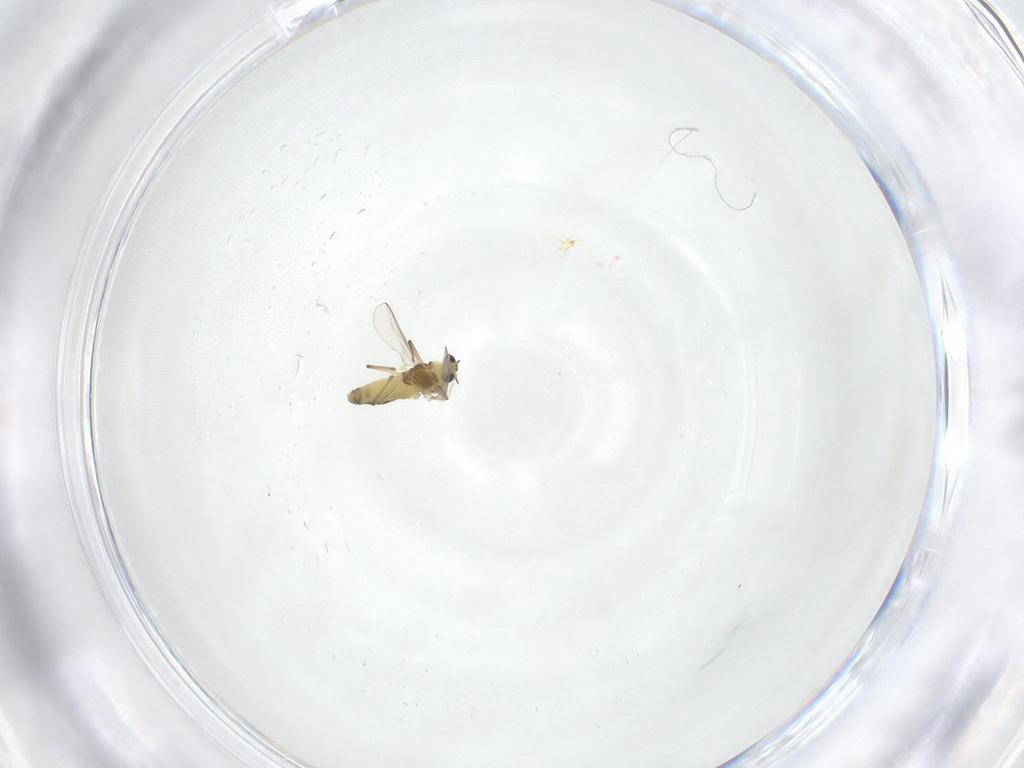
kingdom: Animalia
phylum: Arthropoda
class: Insecta
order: Diptera
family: Chironomidae
